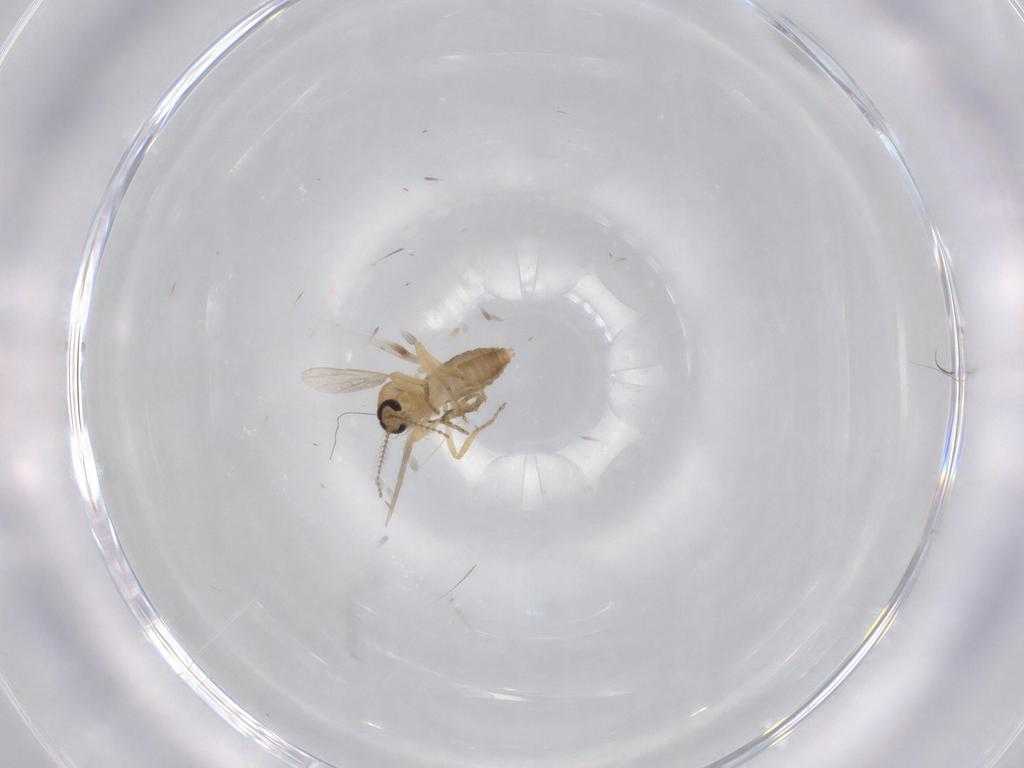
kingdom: Animalia
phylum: Arthropoda
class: Insecta
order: Diptera
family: Ceratopogonidae
